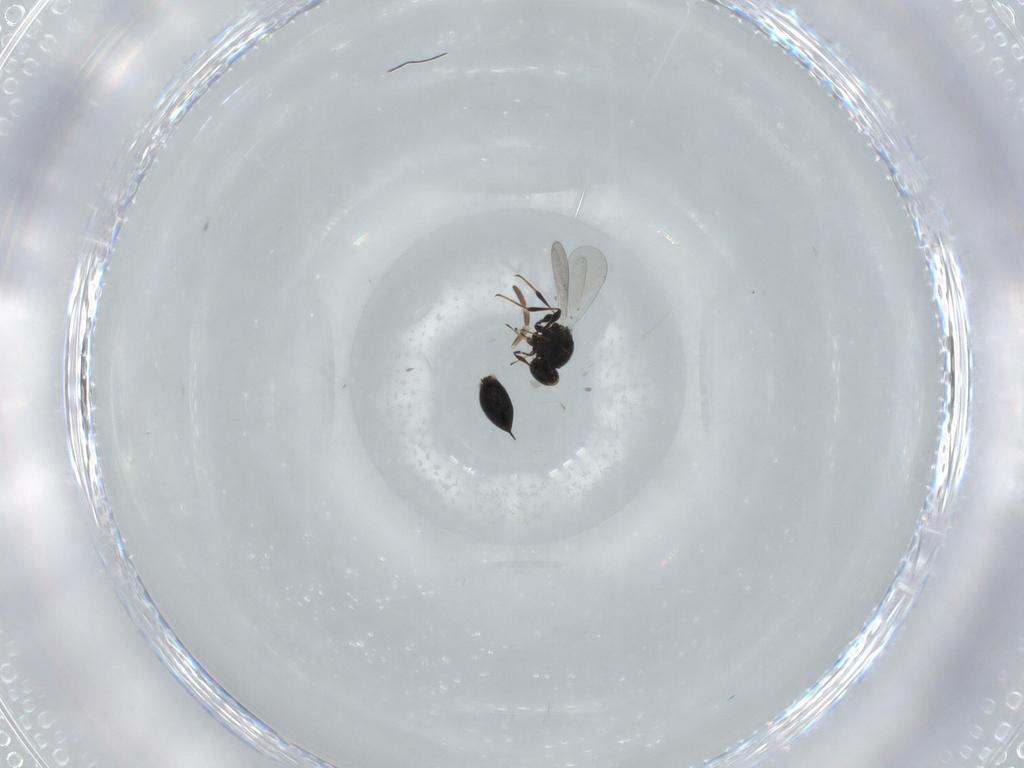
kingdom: Animalia
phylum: Arthropoda
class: Insecta
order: Hymenoptera
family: Platygastridae
